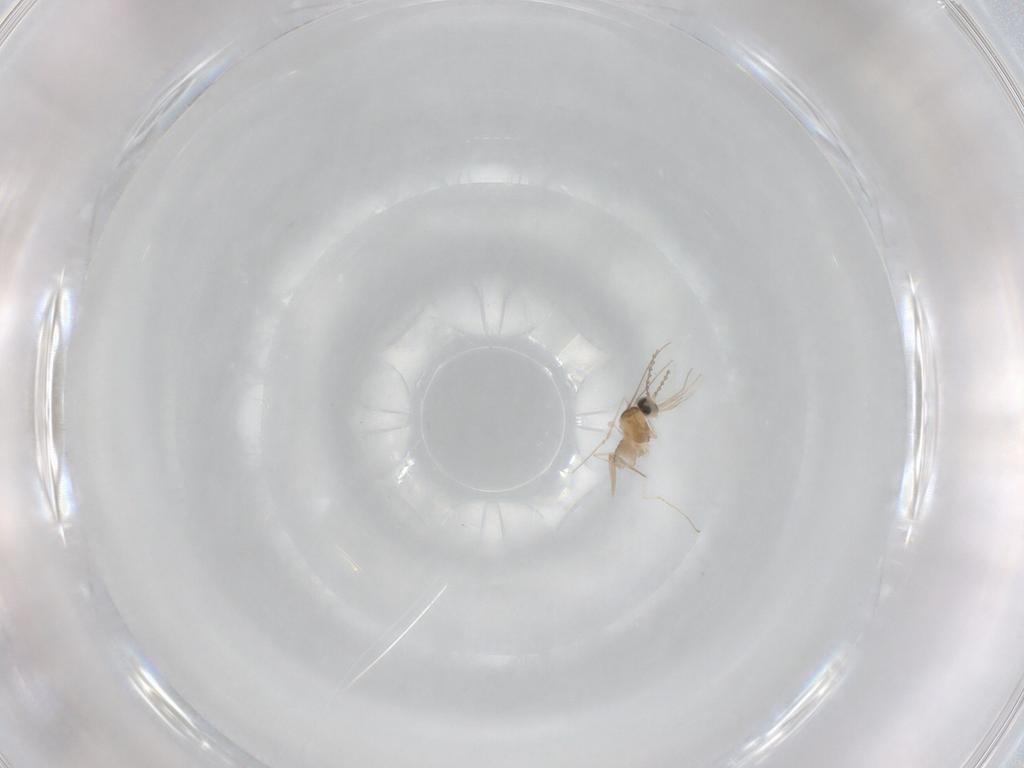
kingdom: Animalia
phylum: Arthropoda
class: Insecta
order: Diptera
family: Cecidomyiidae
